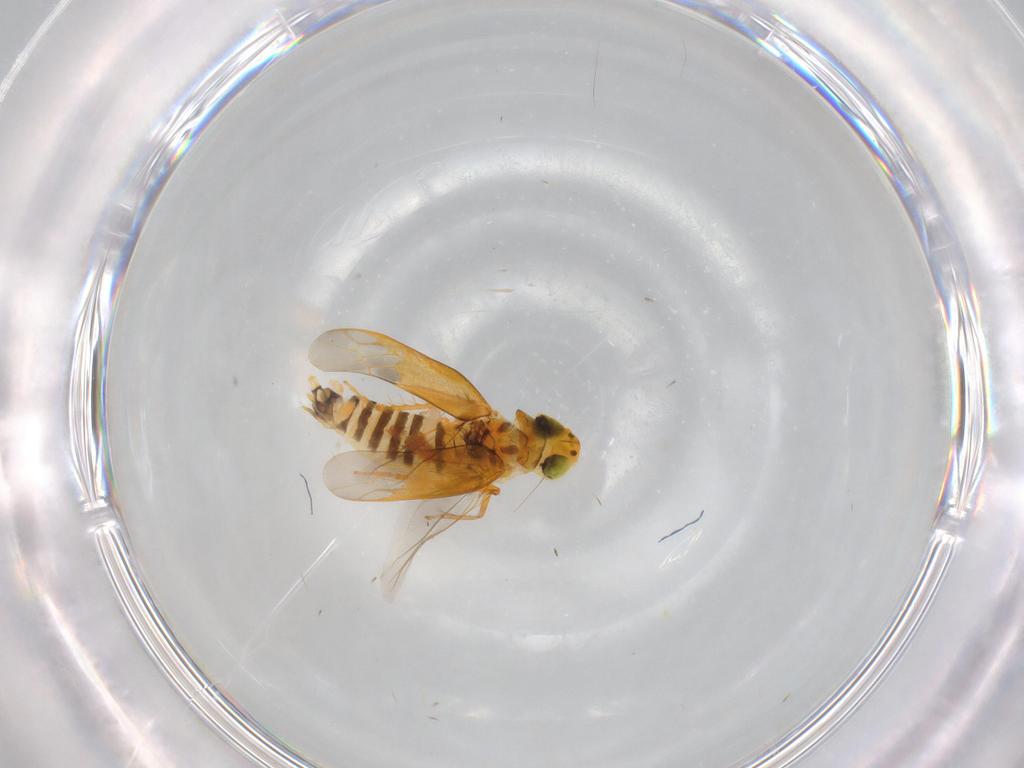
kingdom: Animalia
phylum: Arthropoda
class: Insecta
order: Hemiptera
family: Cicadellidae
